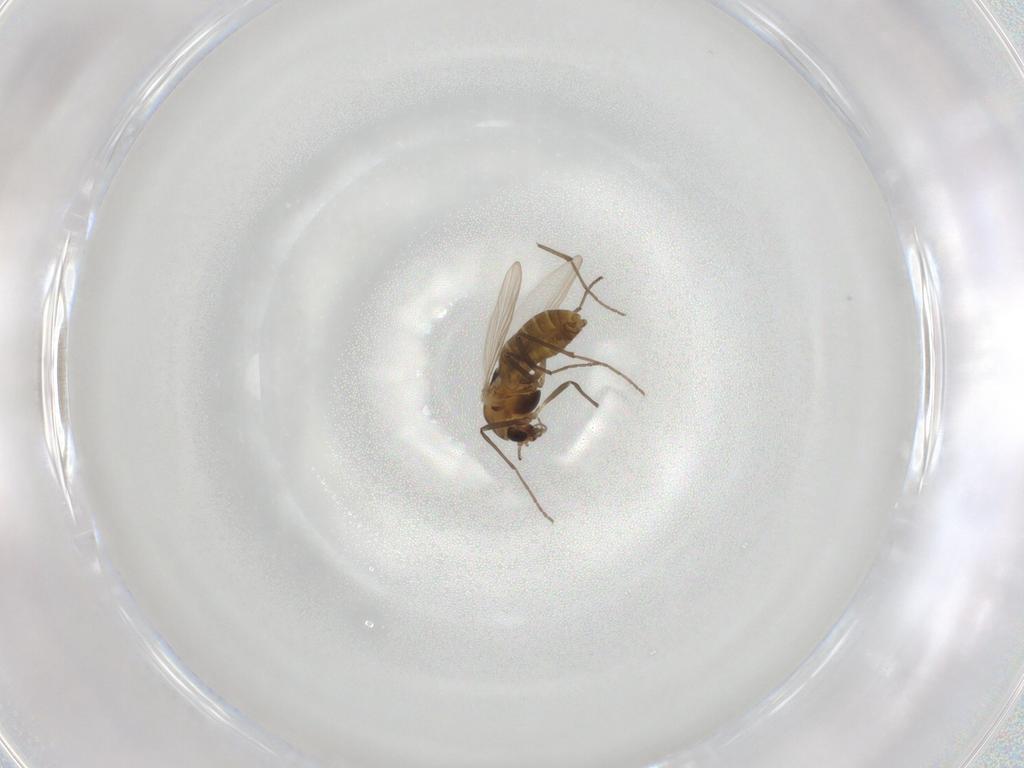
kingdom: Animalia
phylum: Arthropoda
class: Insecta
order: Diptera
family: Chironomidae
